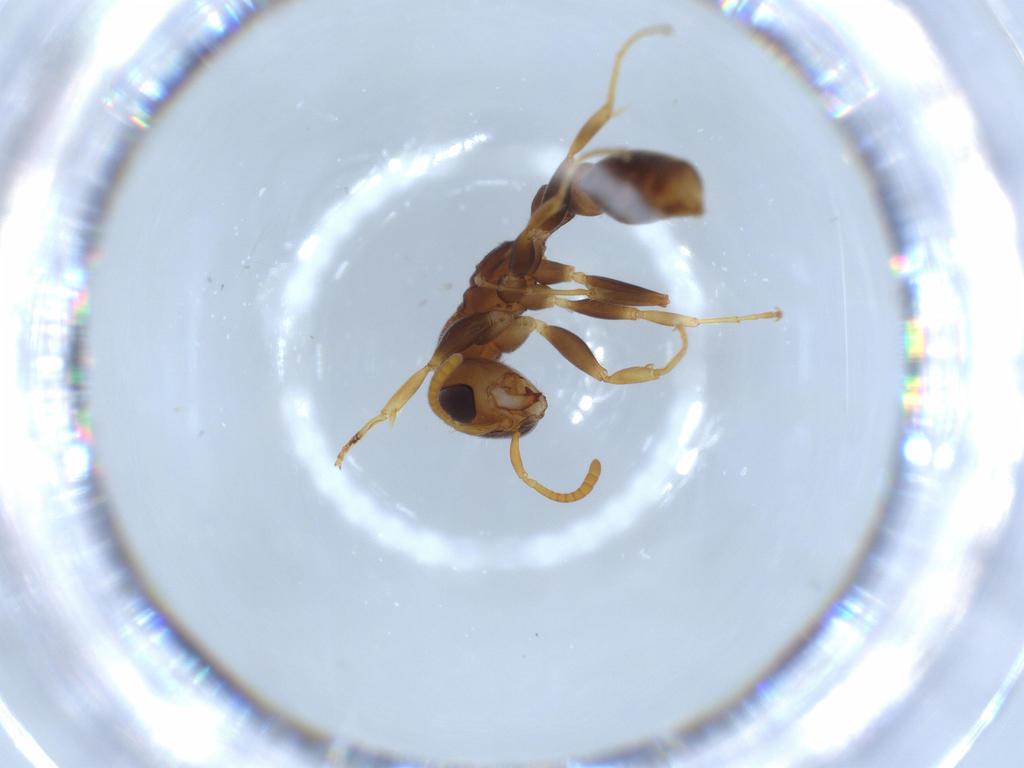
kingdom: Animalia
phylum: Arthropoda
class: Insecta
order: Hymenoptera
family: Formicidae
